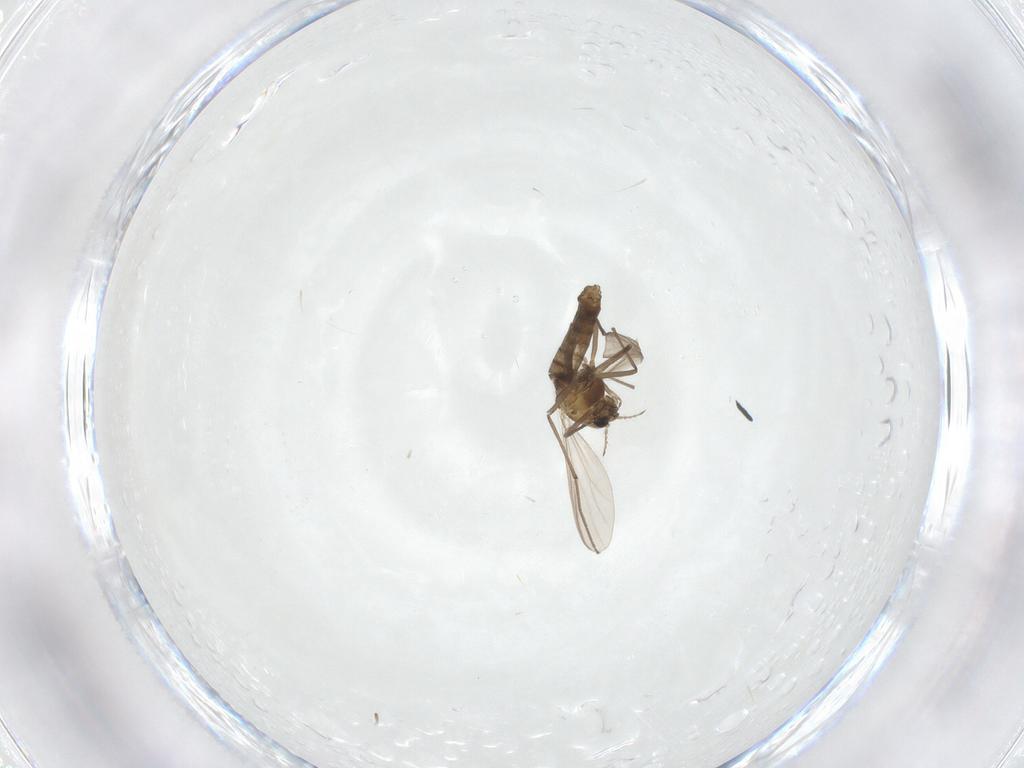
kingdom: Animalia
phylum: Arthropoda
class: Insecta
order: Diptera
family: Chironomidae
